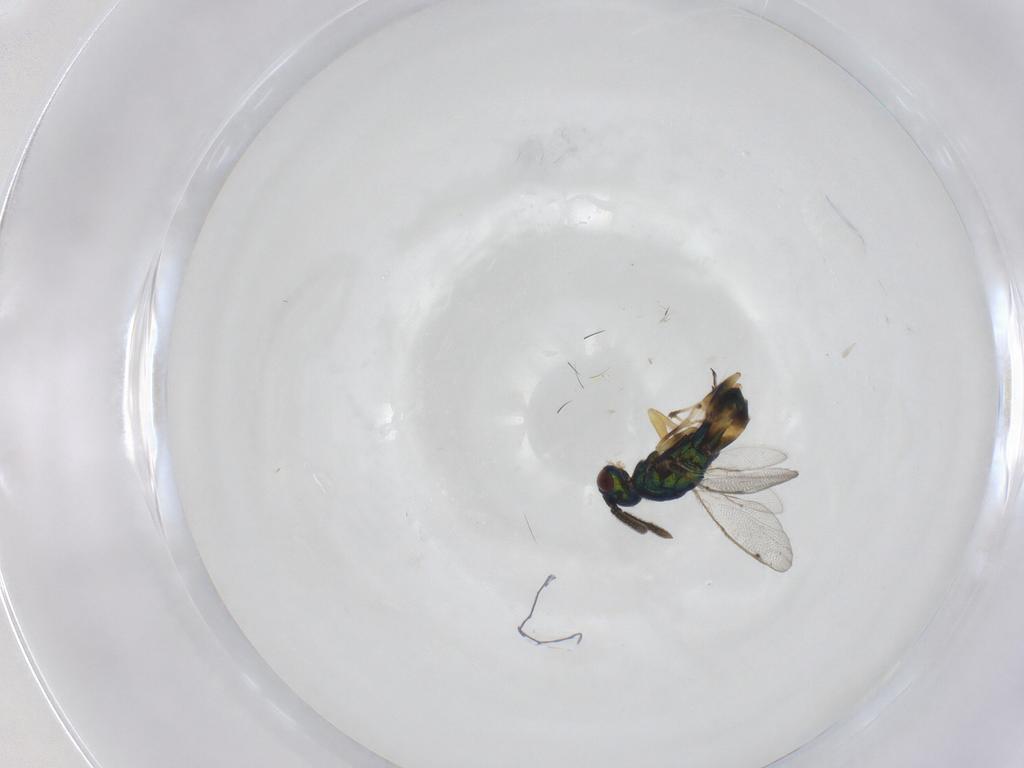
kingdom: Animalia
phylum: Arthropoda
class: Insecta
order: Hymenoptera
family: Torymidae
